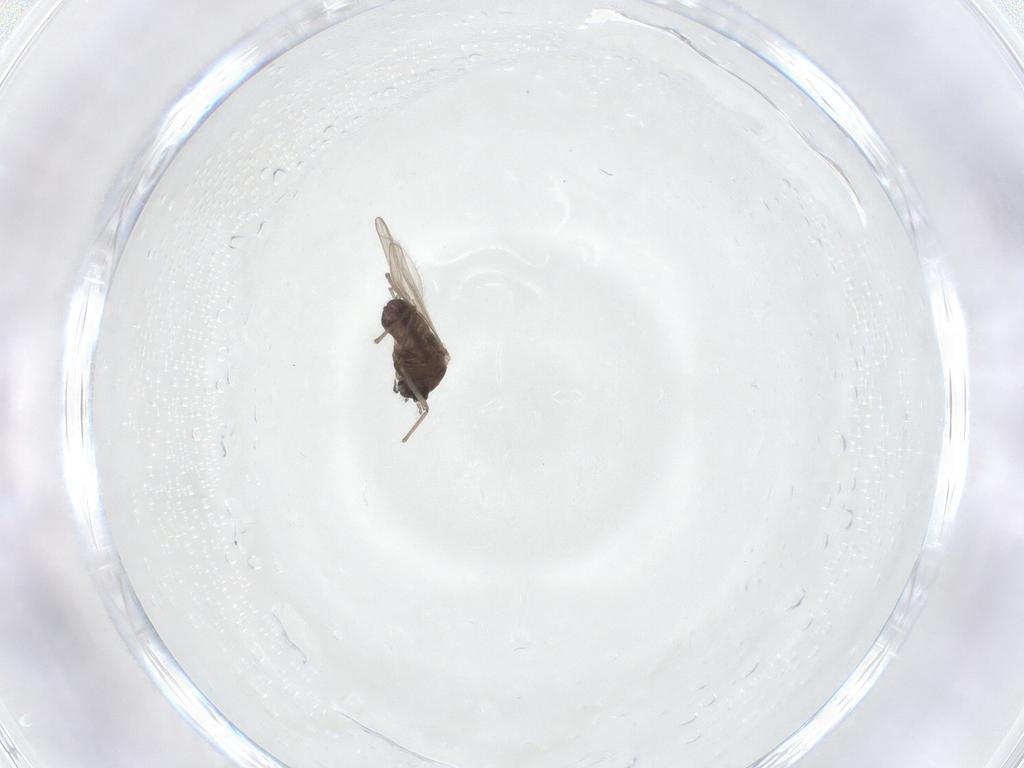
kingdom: Animalia
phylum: Arthropoda
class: Insecta
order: Diptera
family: Chironomidae
